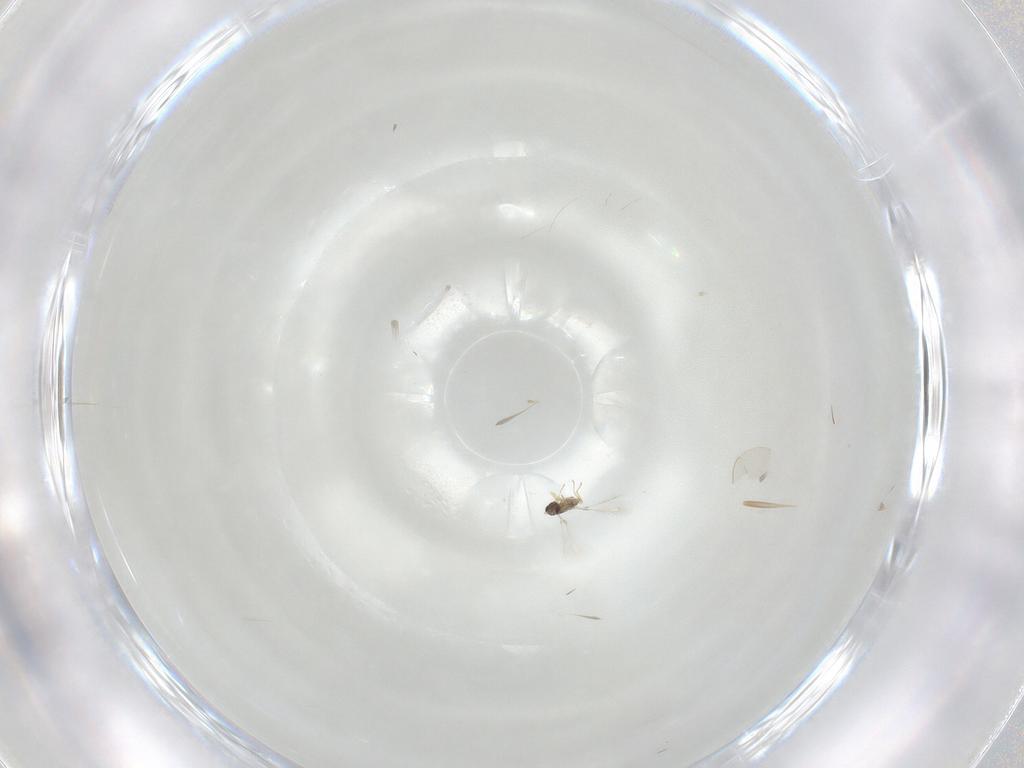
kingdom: Animalia
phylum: Arthropoda
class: Insecta
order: Hymenoptera
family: Mymaridae
